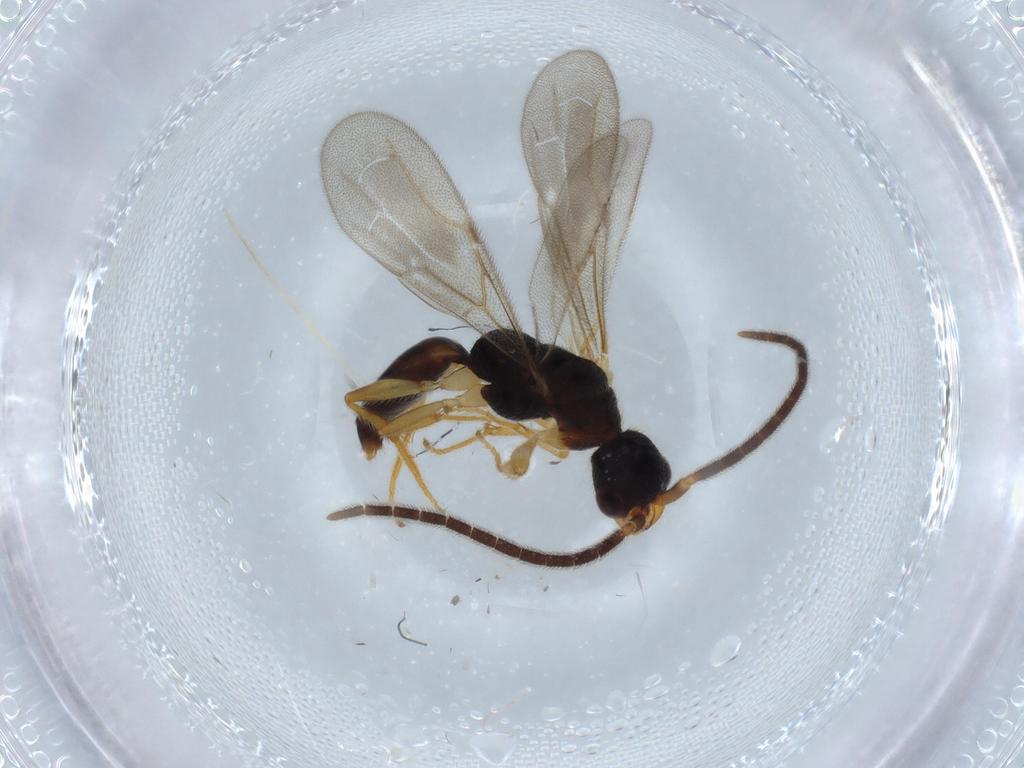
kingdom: Animalia
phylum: Arthropoda
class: Insecta
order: Hymenoptera
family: Bethylidae
